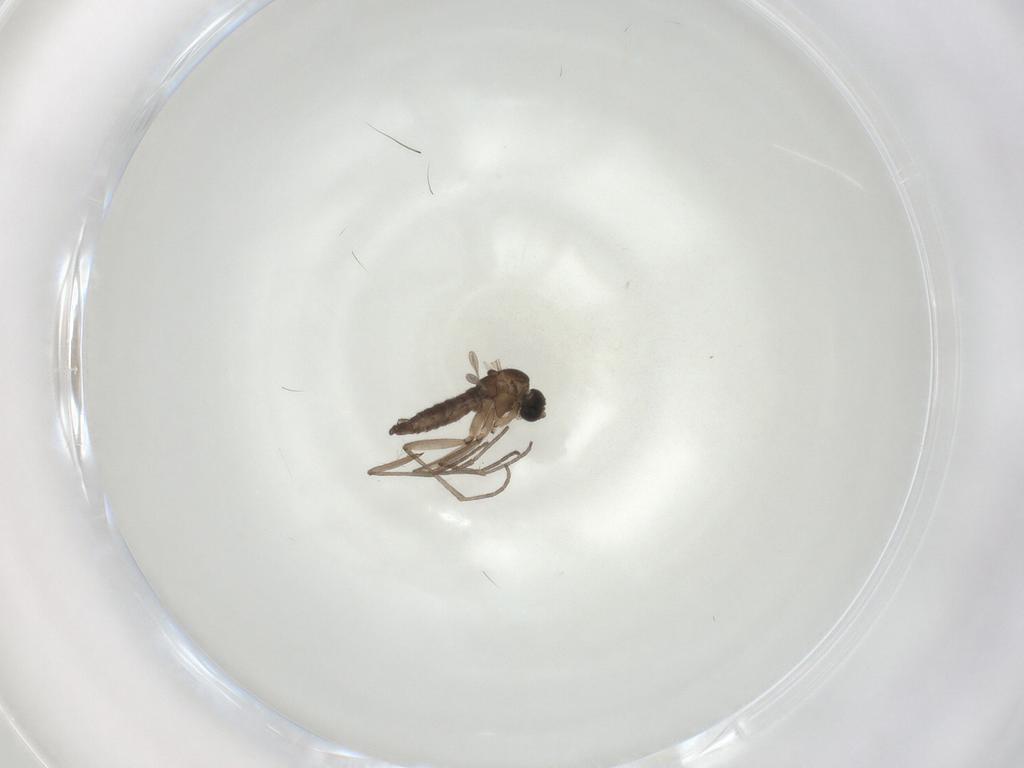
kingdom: Animalia
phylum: Arthropoda
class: Insecta
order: Diptera
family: Sciaridae
